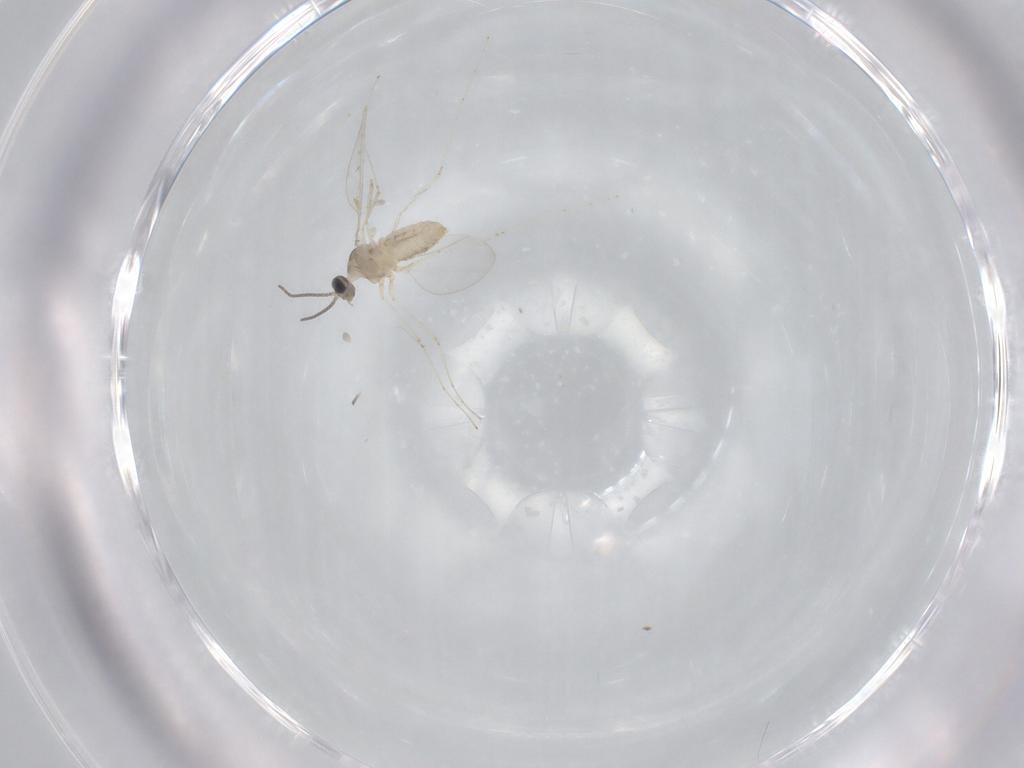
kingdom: Animalia
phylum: Arthropoda
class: Insecta
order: Diptera
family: Cecidomyiidae
